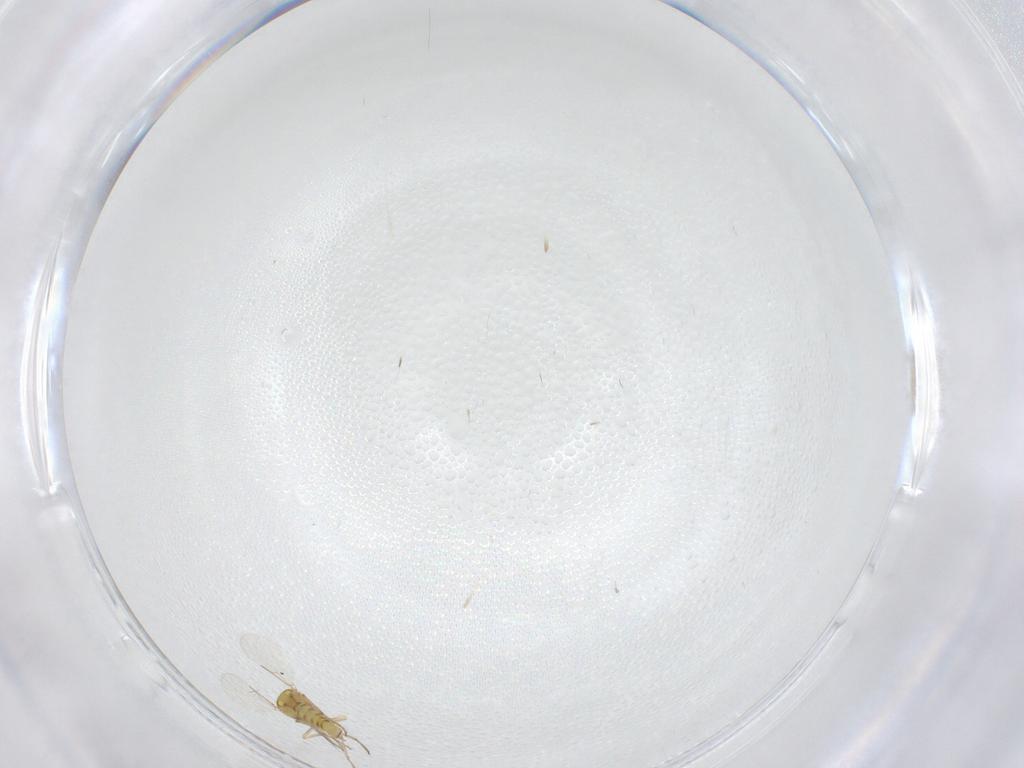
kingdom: Animalia
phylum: Arthropoda
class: Insecta
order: Diptera
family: Ceratopogonidae
